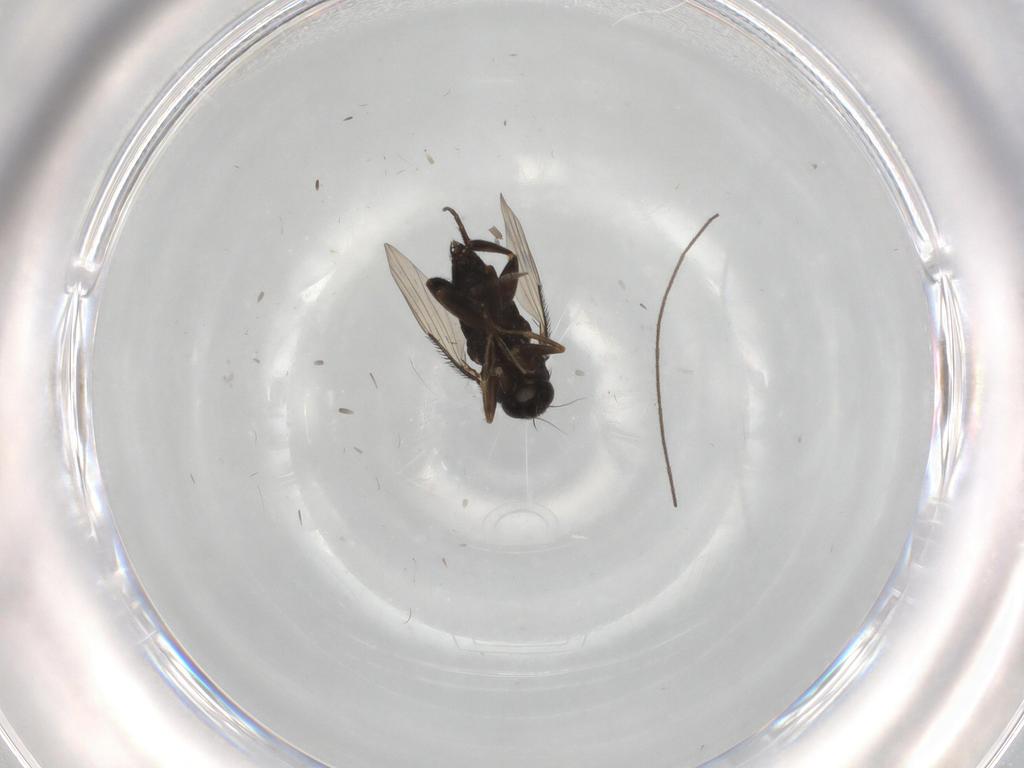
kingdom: Animalia
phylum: Arthropoda
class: Insecta
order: Diptera
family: Phoridae
